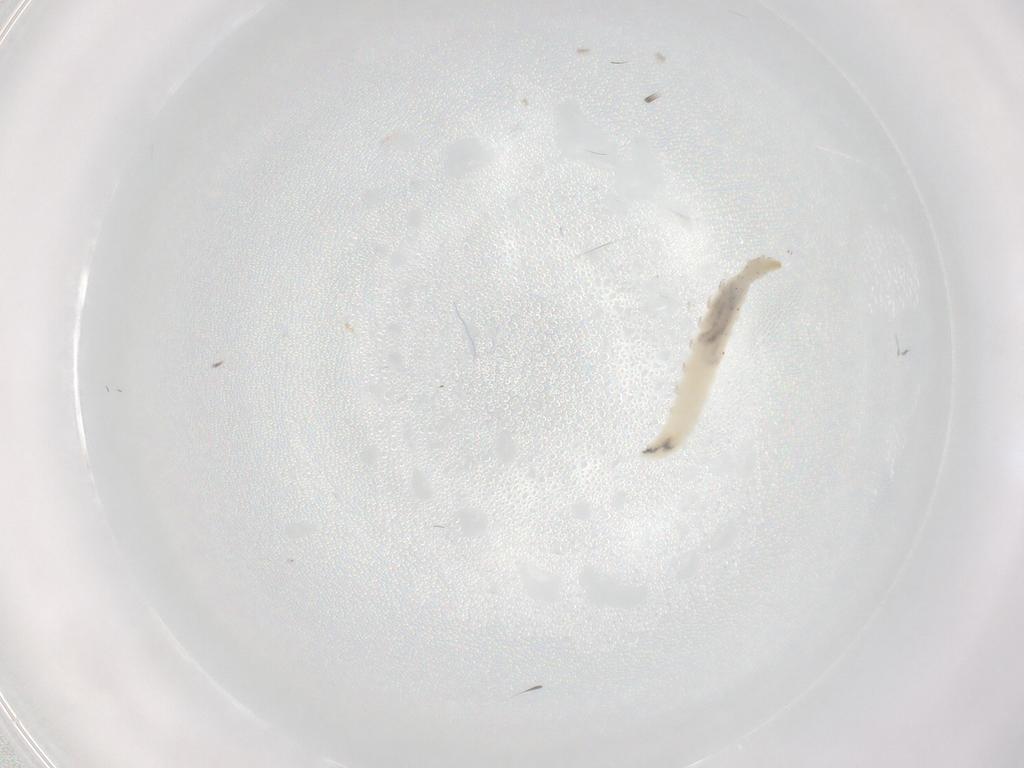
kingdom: Animalia
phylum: Arthropoda
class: Insecta
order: Diptera
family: Drosophilidae
